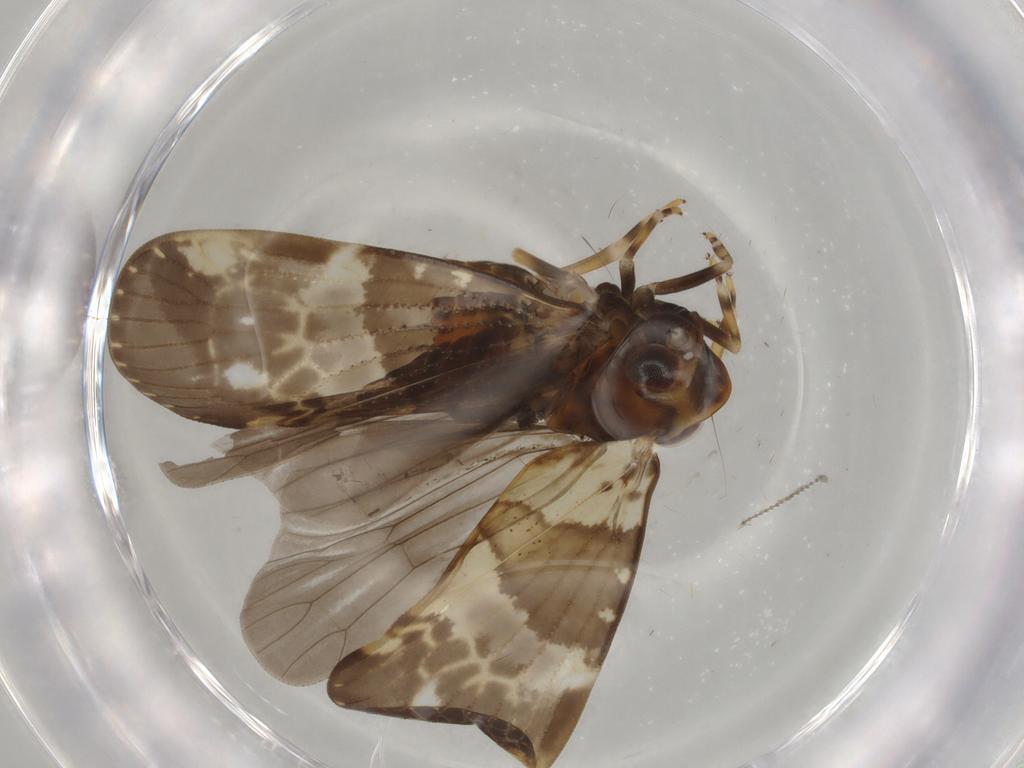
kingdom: Animalia
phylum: Arthropoda
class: Insecta
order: Hemiptera
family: Cixiidae
